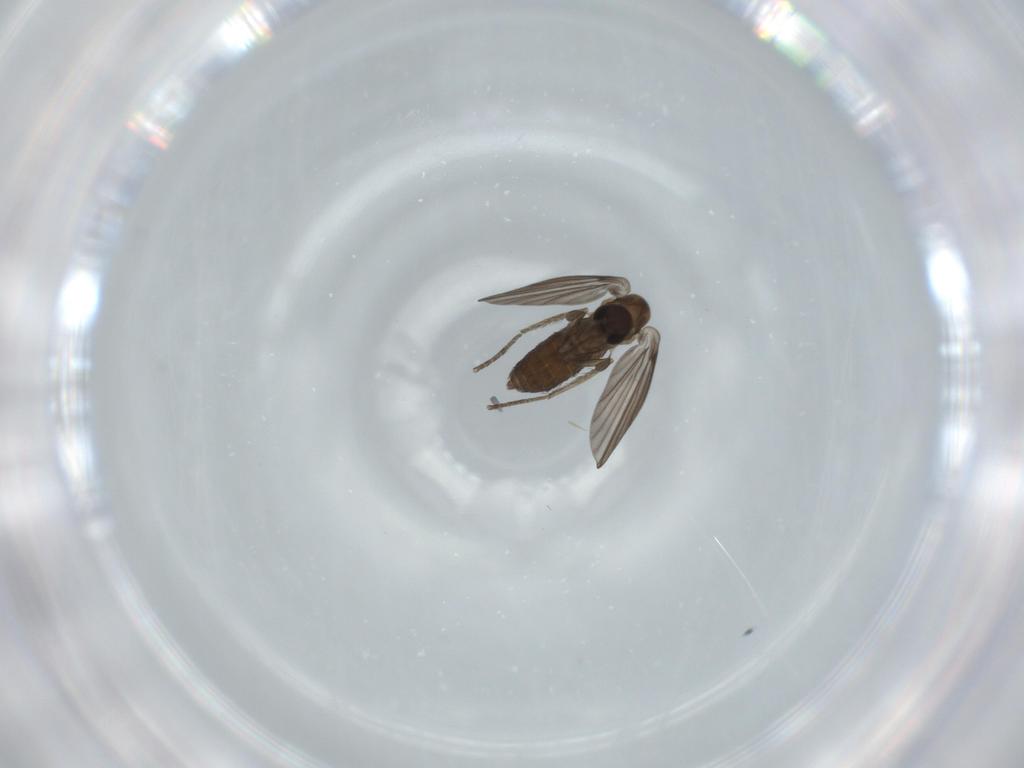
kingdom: Animalia
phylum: Arthropoda
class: Insecta
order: Diptera
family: Psychodidae
